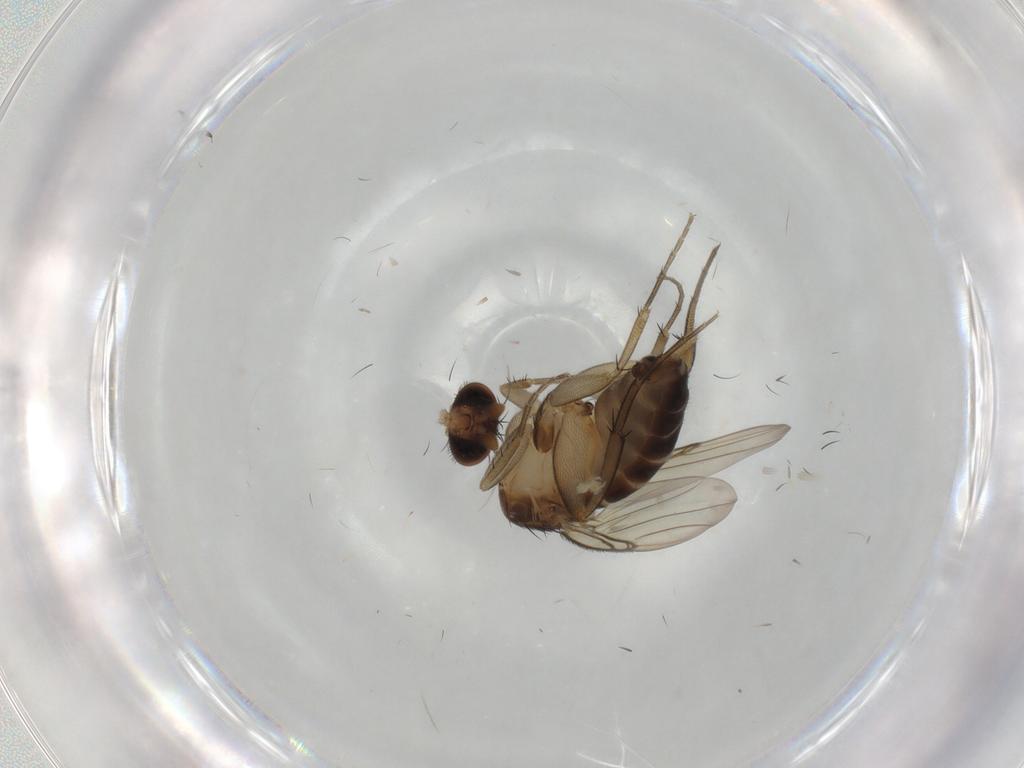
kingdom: Animalia
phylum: Arthropoda
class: Insecta
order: Diptera
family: Phoridae
